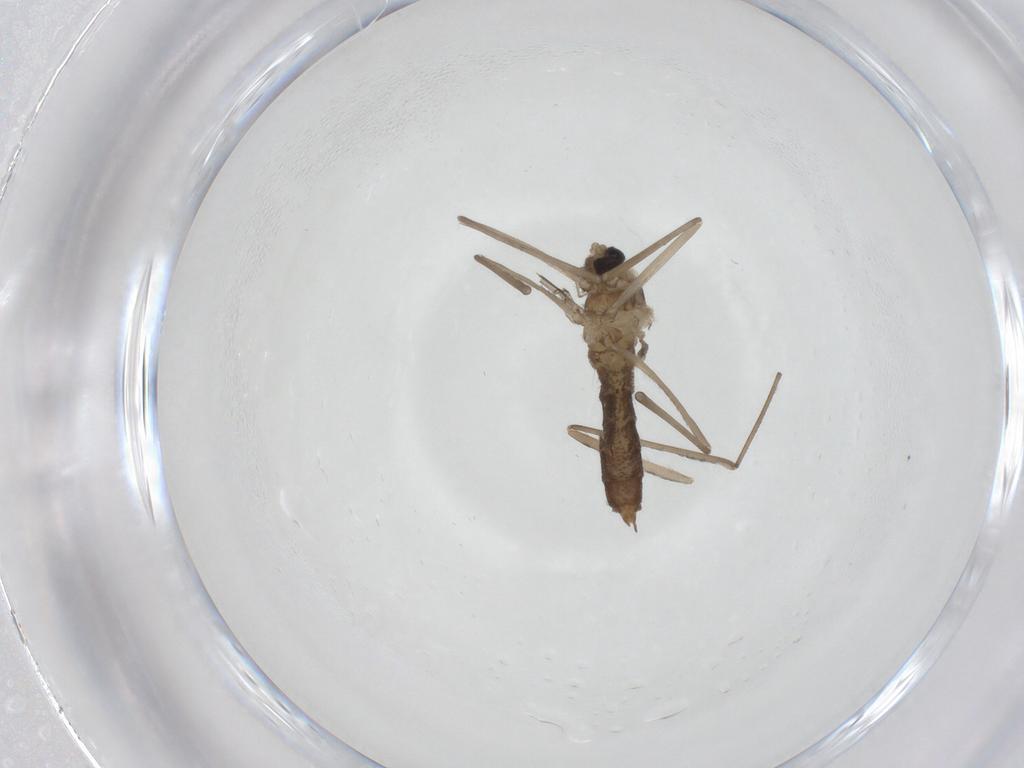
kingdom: Animalia
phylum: Arthropoda
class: Insecta
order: Diptera
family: Cecidomyiidae
